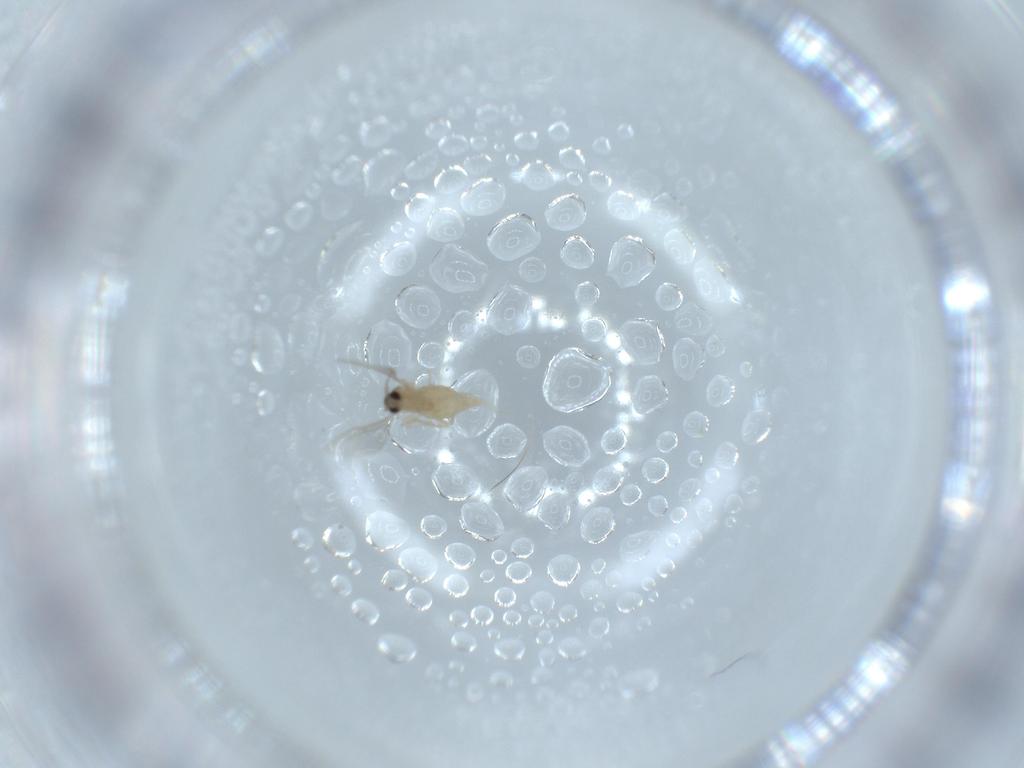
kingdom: Animalia
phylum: Arthropoda
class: Insecta
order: Diptera
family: Cecidomyiidae
